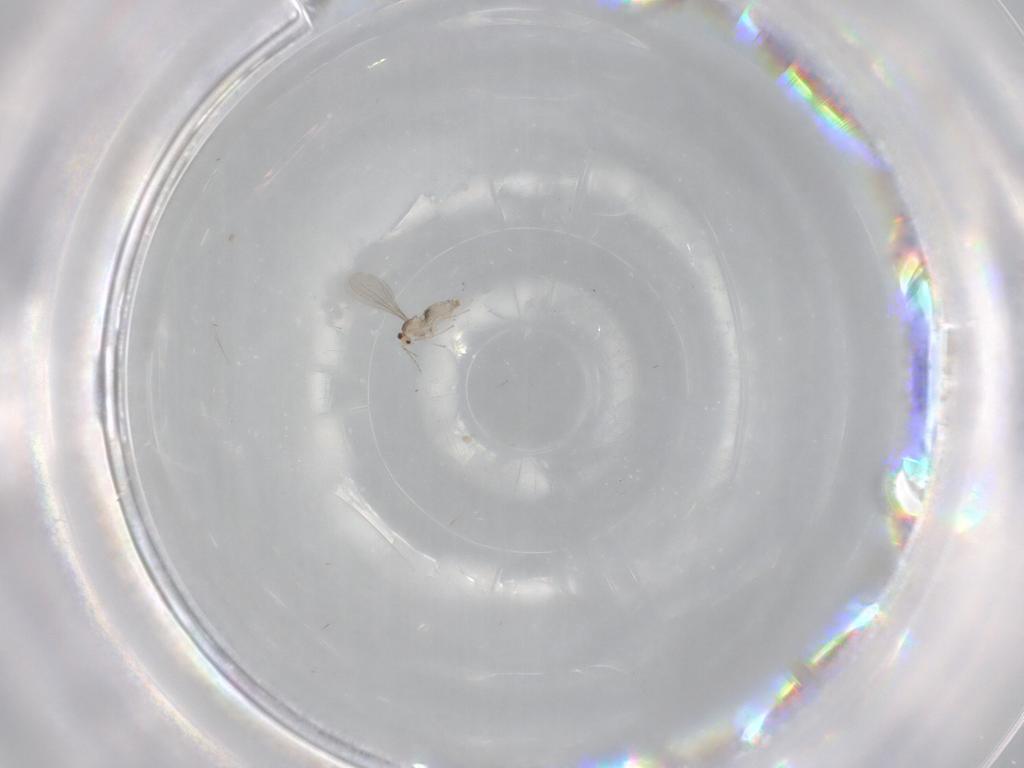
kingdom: Animalia
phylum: Arthropoda
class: Insecta
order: Diptera
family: Cecidomyiidae
